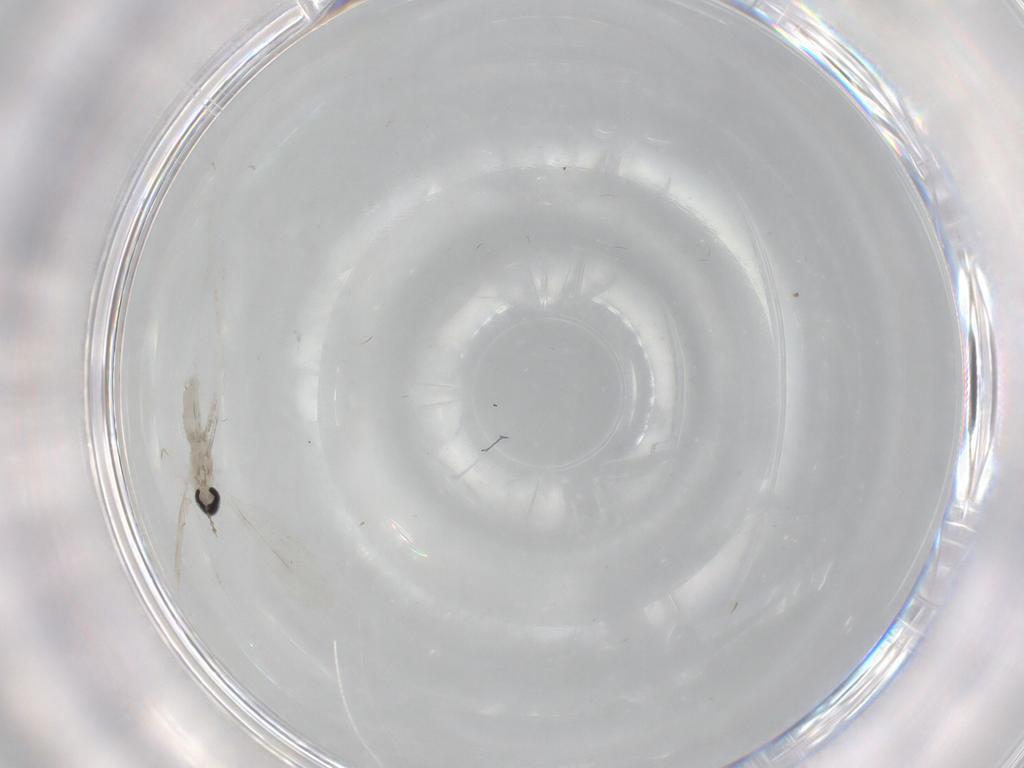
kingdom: Animalia
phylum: Arthropoda
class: Insecta
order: Diptera
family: Cecidomyiidae
